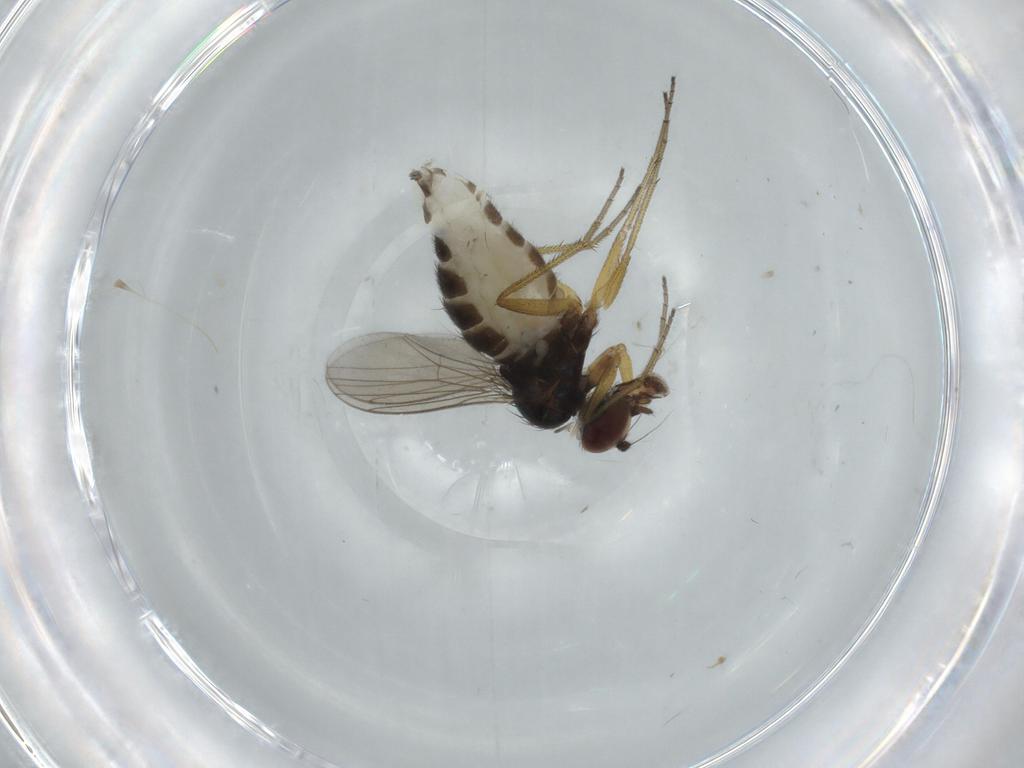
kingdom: Animalia
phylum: Arthropoda
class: Insecta
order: Diptera
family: Dolichopodidae
